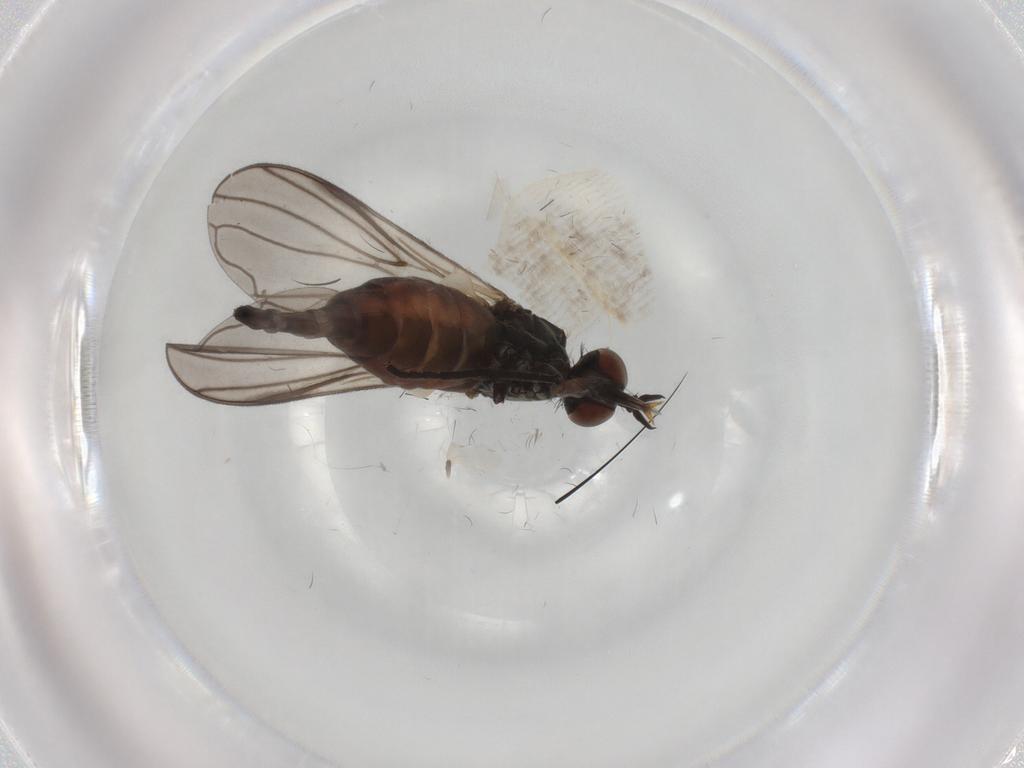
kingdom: Animalia
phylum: Arthropoda
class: Insecta
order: Diptera
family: Empididae
